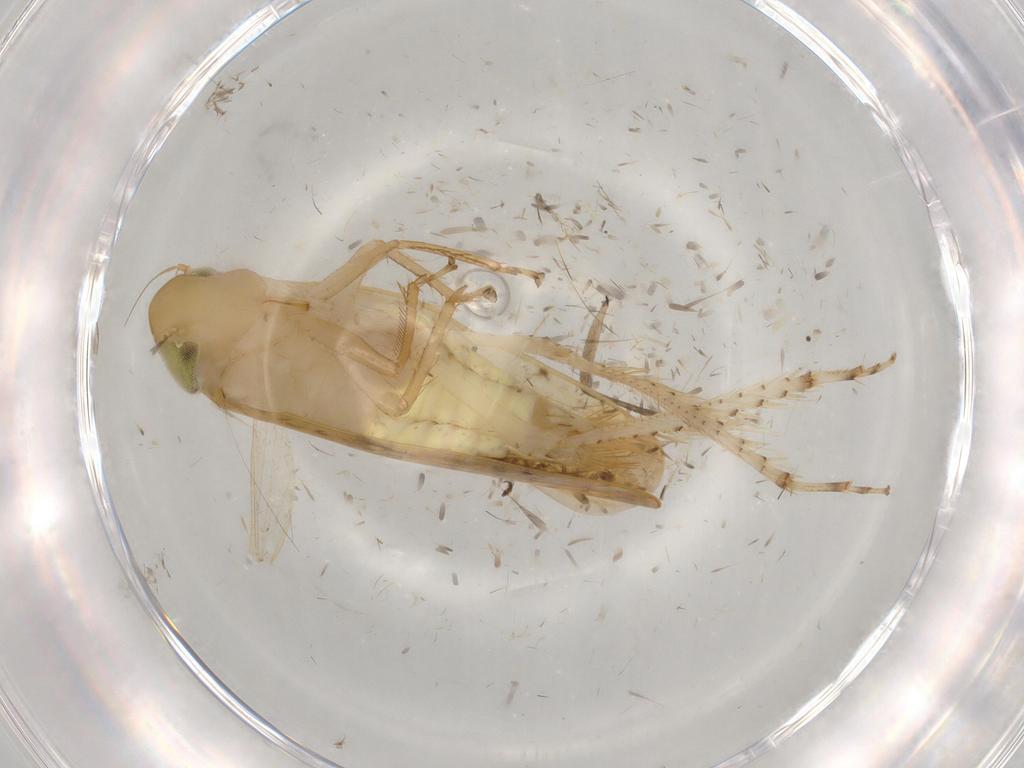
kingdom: Animalia
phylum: Arthropoda
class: Insecta
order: Hemiptera
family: Cicadellidae
